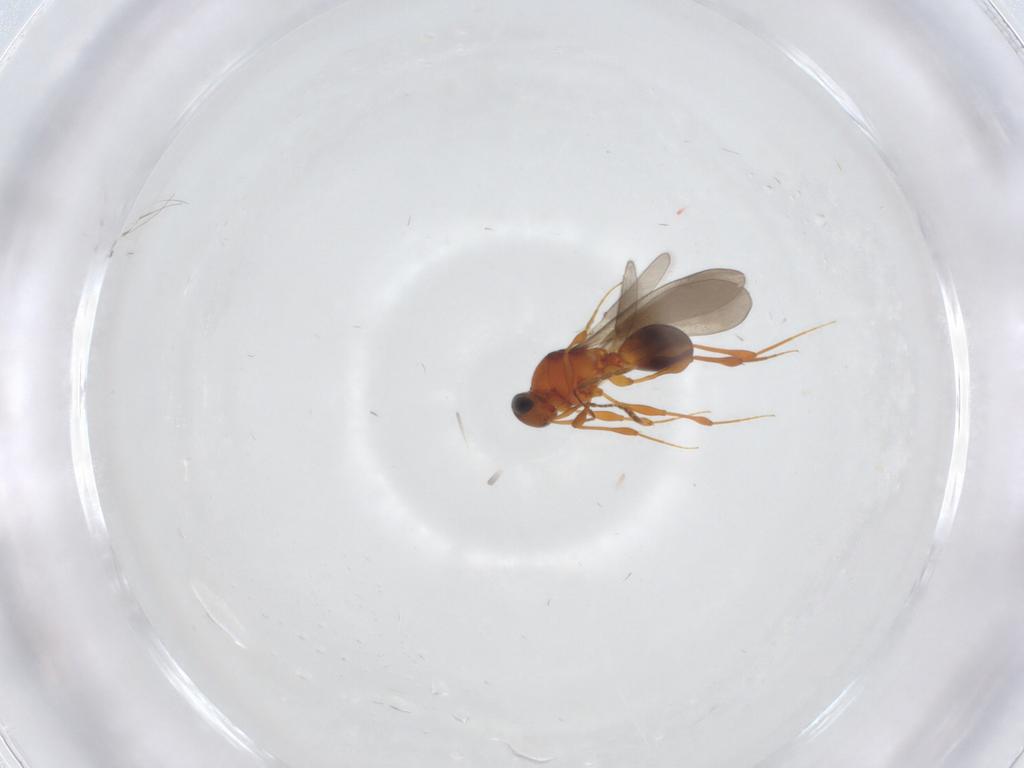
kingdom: Animalia
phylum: Arthropoda
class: Insecta
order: Hymenoptera
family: Platygastridae
